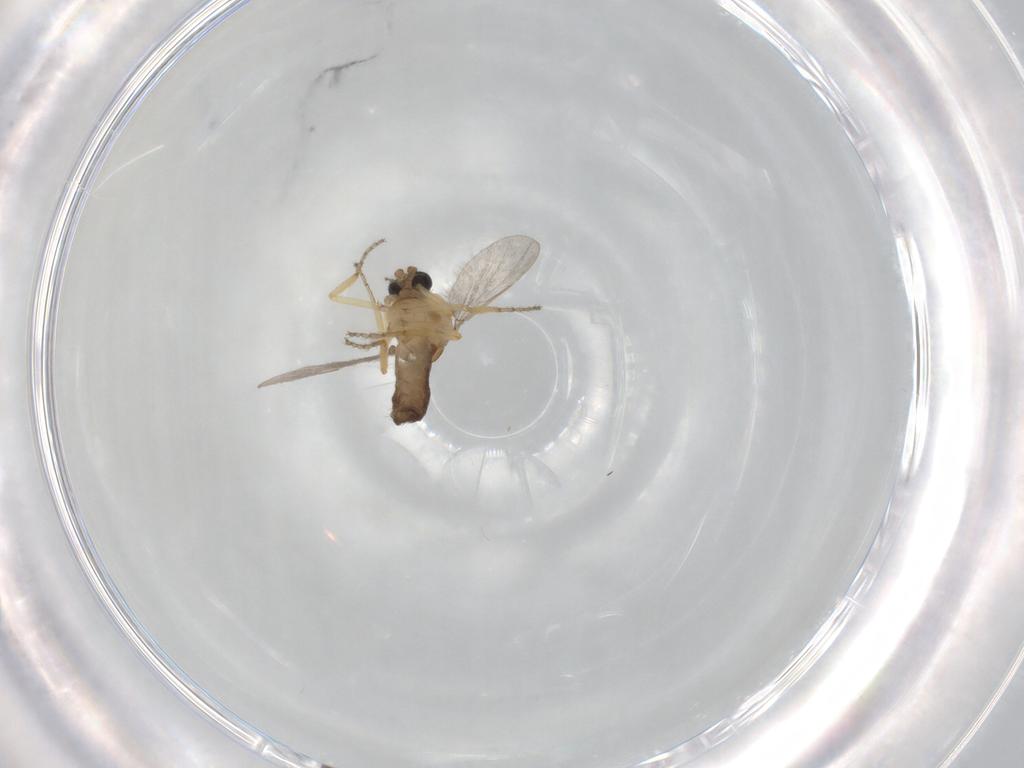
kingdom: Animalia
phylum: Arthropoda
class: Insecta
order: Diptera
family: Ceratopogonidae
